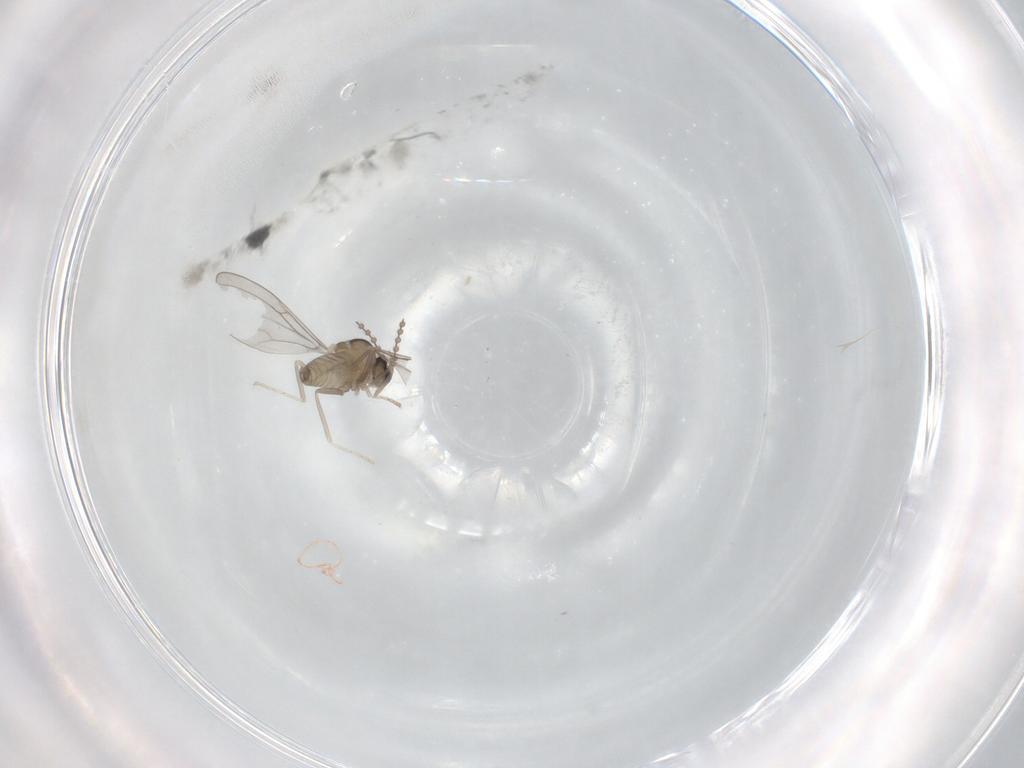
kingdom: Animalia
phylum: Arthropoda
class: Insecta
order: Diptera
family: Cecidomyiidae
